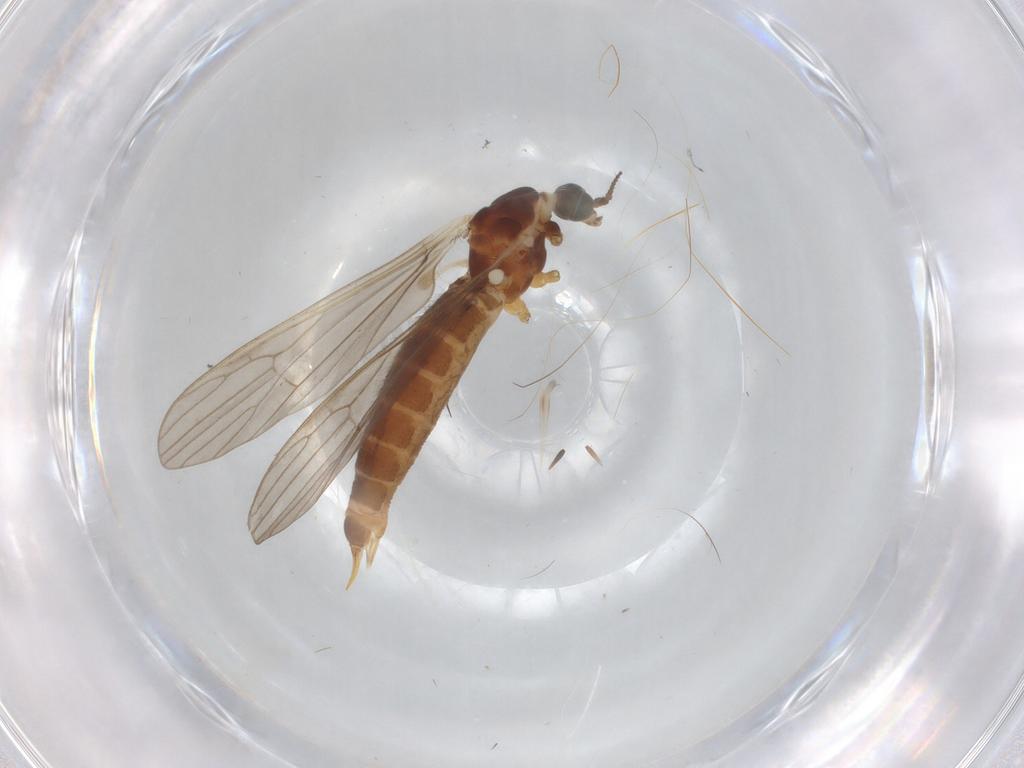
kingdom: Animalia
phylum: Arthropoda
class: Insecta
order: Diptera
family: Limoniidae
